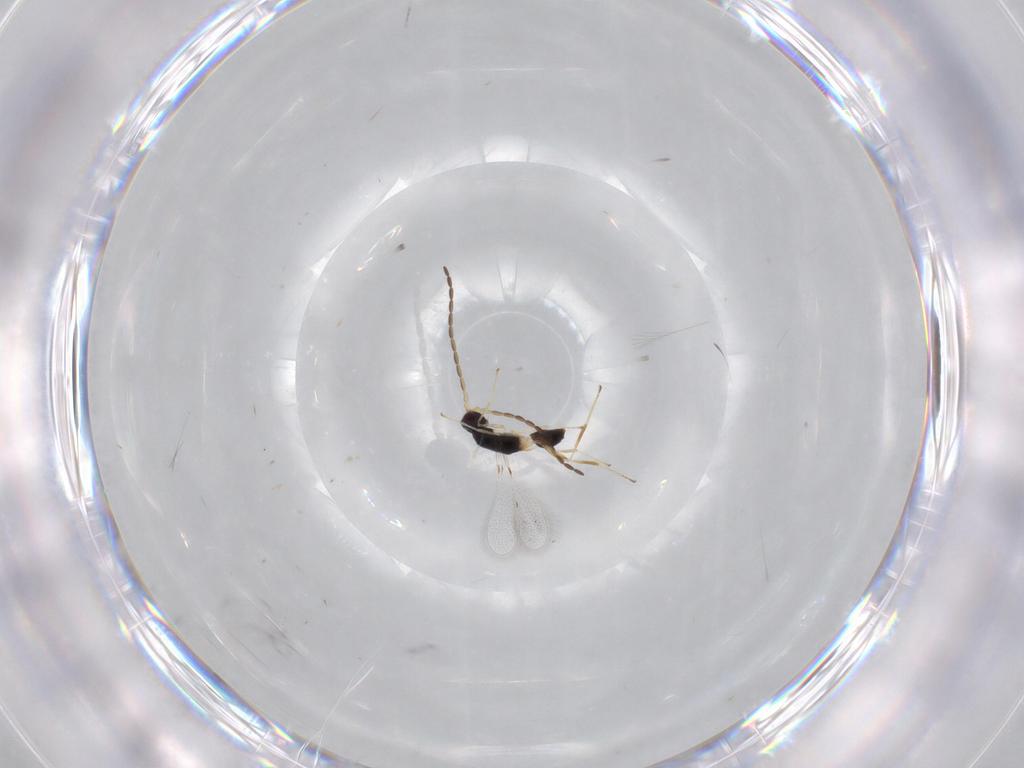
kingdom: Animalia
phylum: Arthropoda
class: Insecta
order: Hymenoptera
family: Mymaridae
